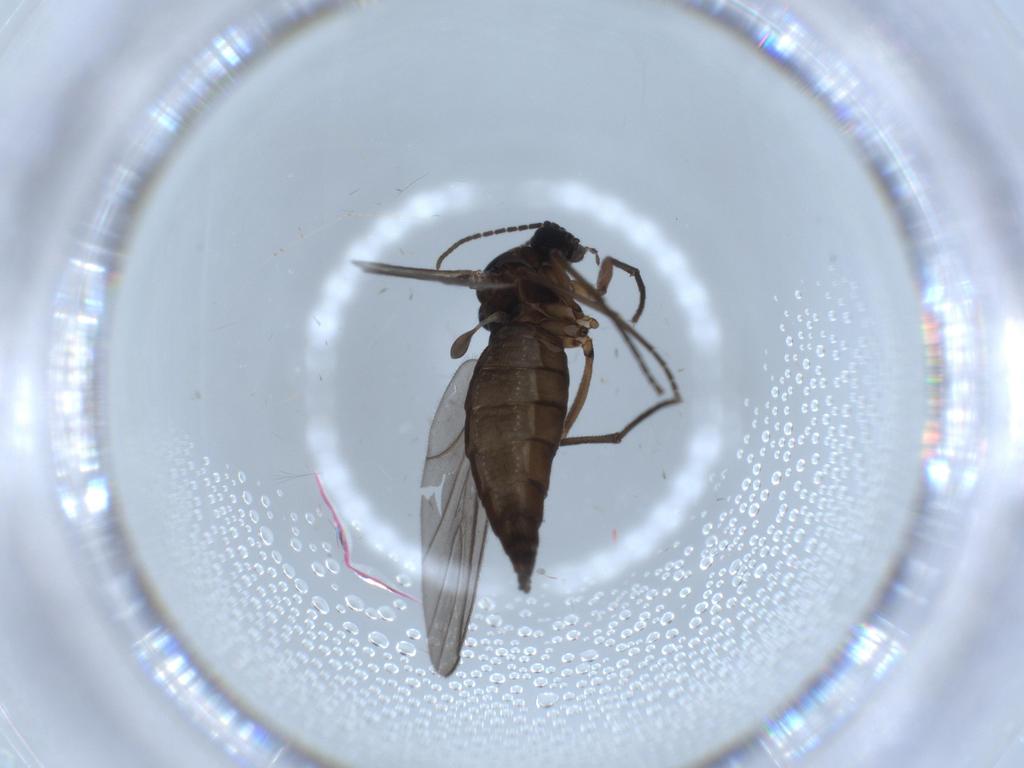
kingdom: Animalia
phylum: Arthropoda
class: Insecta
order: Diptera
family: Sciaridae
